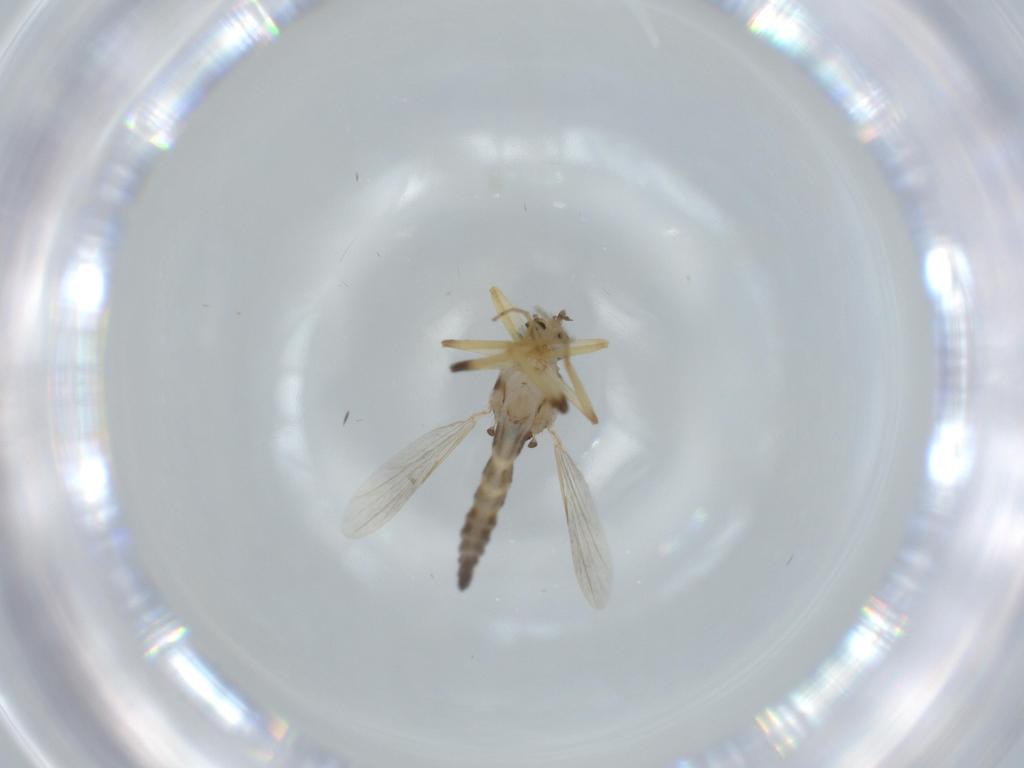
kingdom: Animalia
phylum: Arthropoda
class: Insecta
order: Diptera
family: Ceratopogonidae
